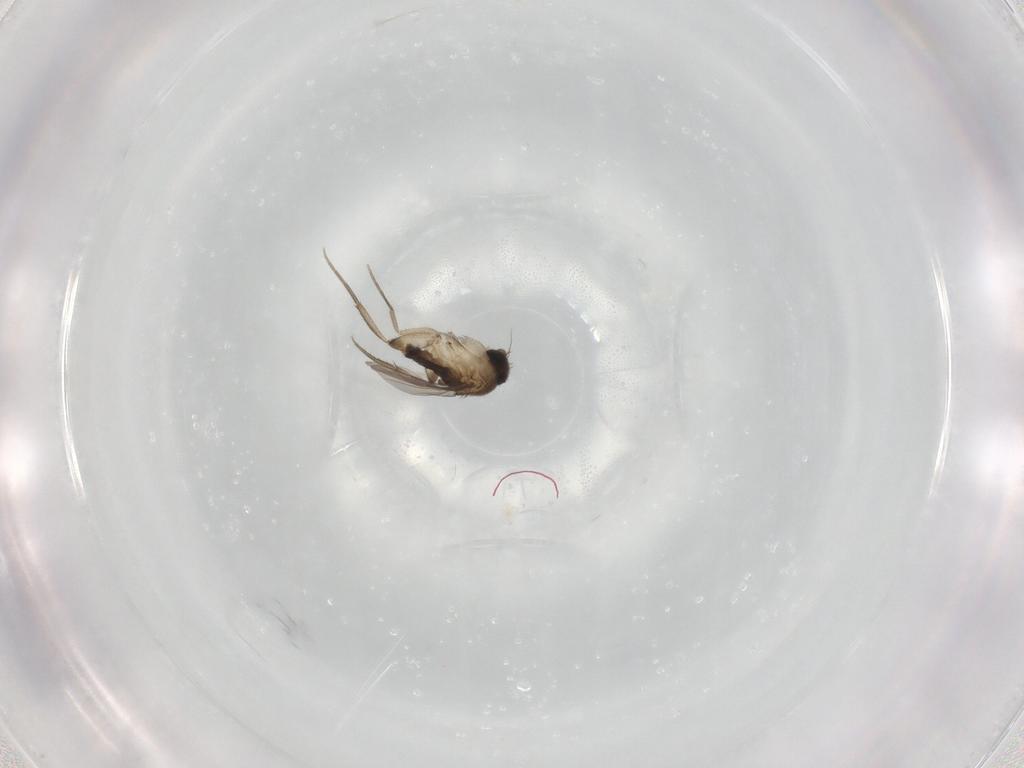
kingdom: Animalia
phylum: Arthropoda
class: Insecta
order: Diptera
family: Phoridae
